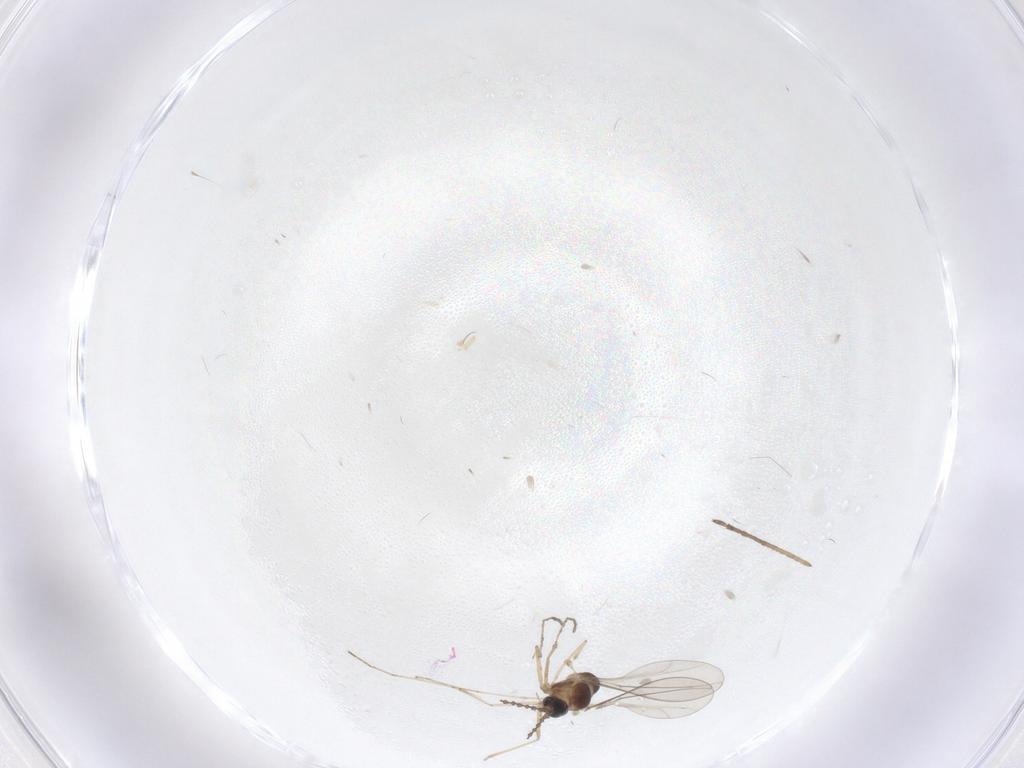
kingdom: Animalia
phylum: Arthropoda
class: Insecta
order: Diptera
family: Cecidomyiidae
